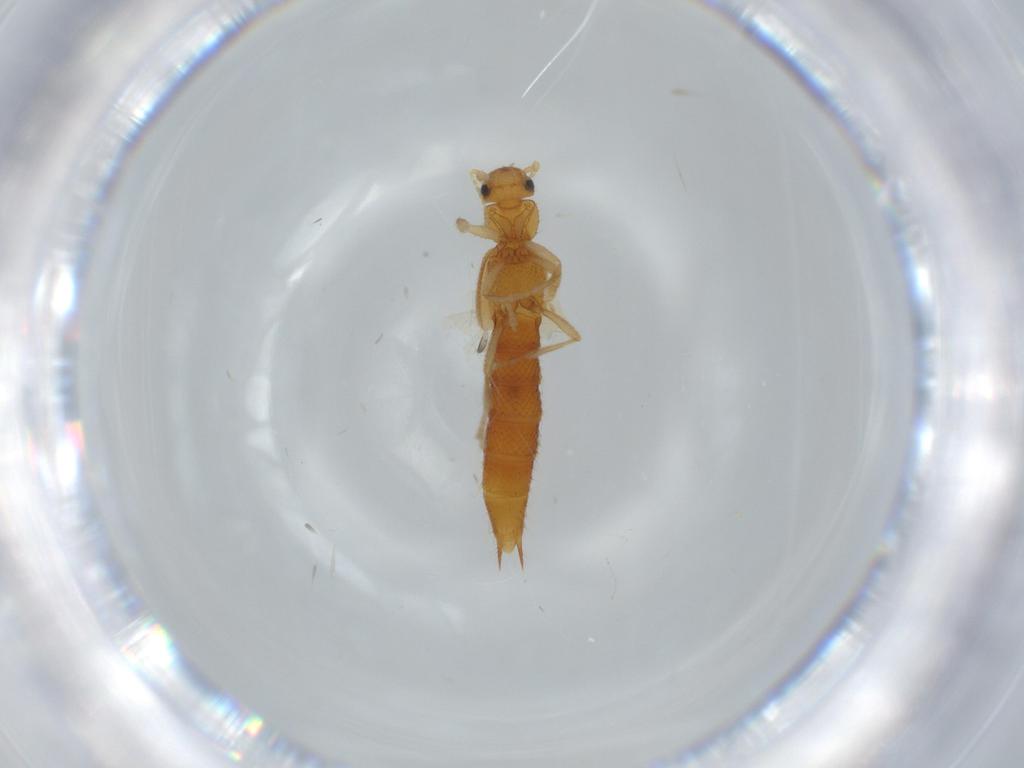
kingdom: Animalia
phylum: Arthropoda
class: Insecta
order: Coleoptera
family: Staphylinidae
